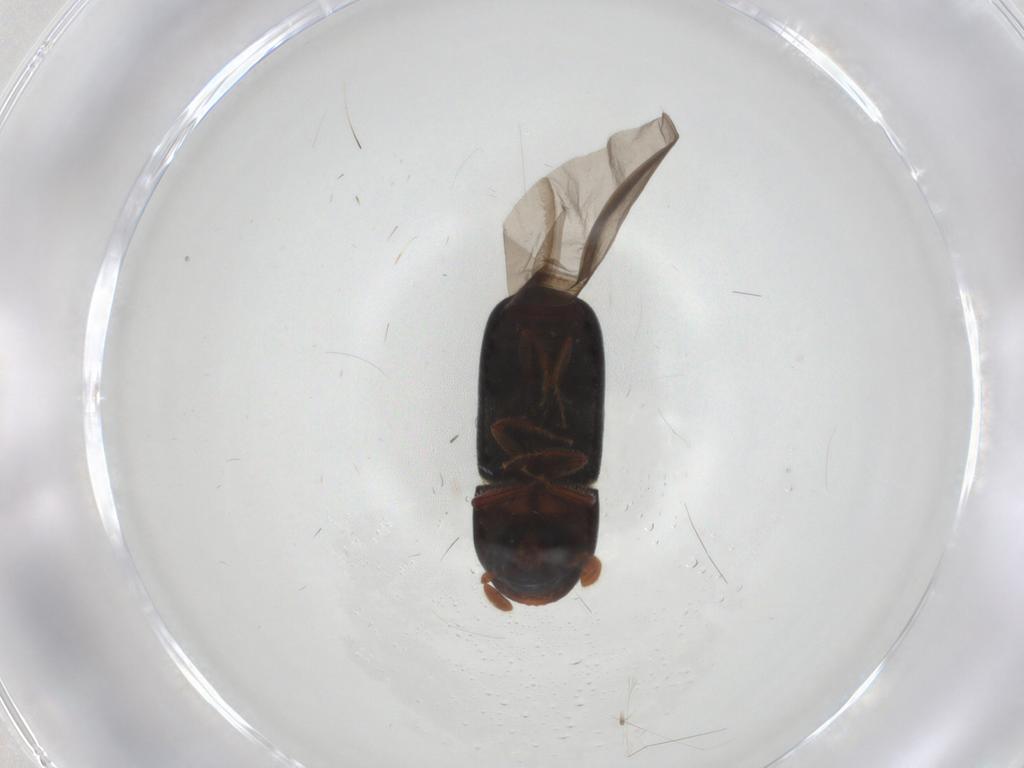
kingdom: Animalia
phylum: Arthropoda
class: Insecta
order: Coleoptera
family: Curculionidae
